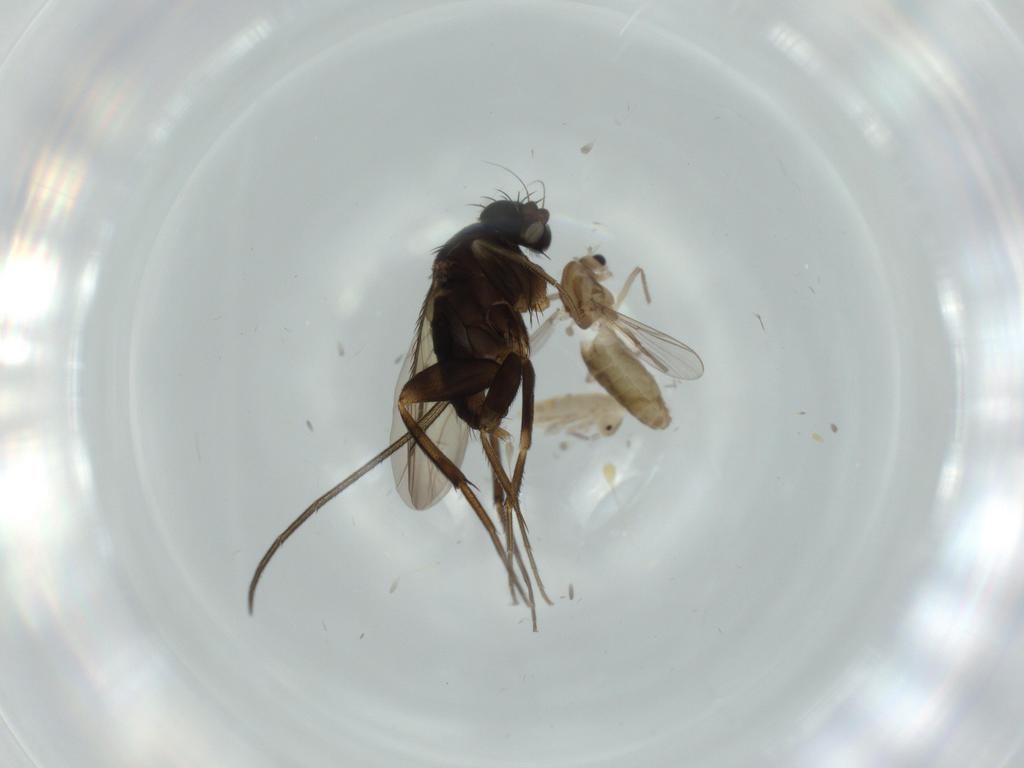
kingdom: Animalia
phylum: Arthropoda
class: Insecta
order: Diptera
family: Chironomidae
